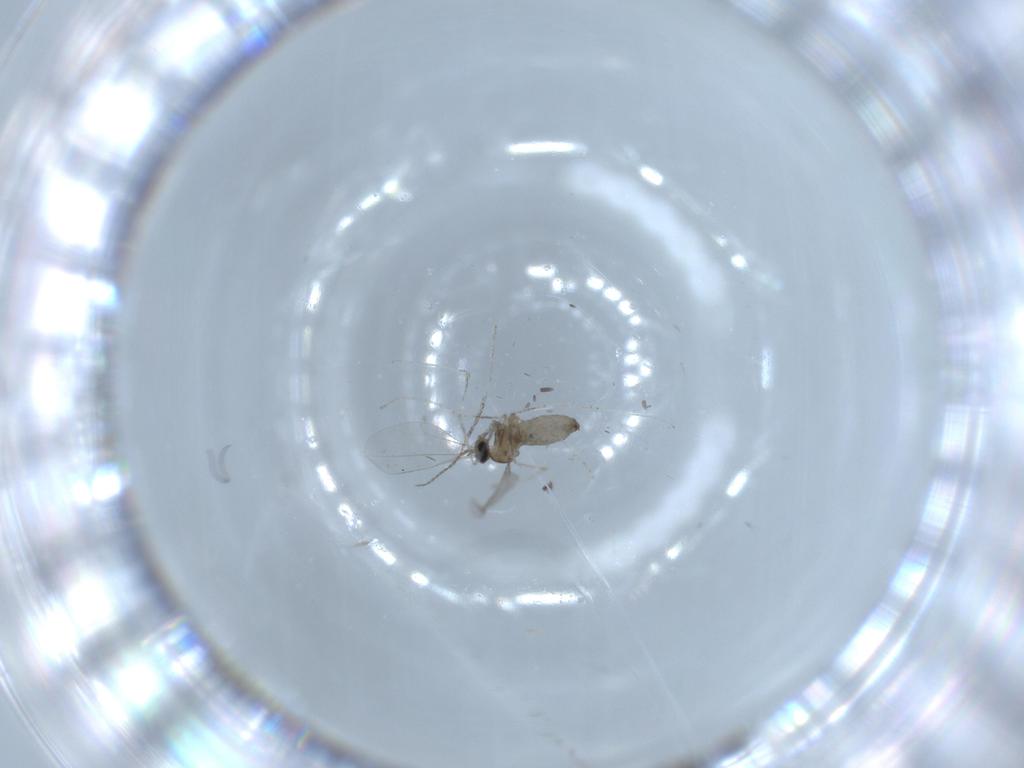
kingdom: Animalia
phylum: Arthropoda
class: Insecta
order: Diptera
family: Cecidomyiidae
